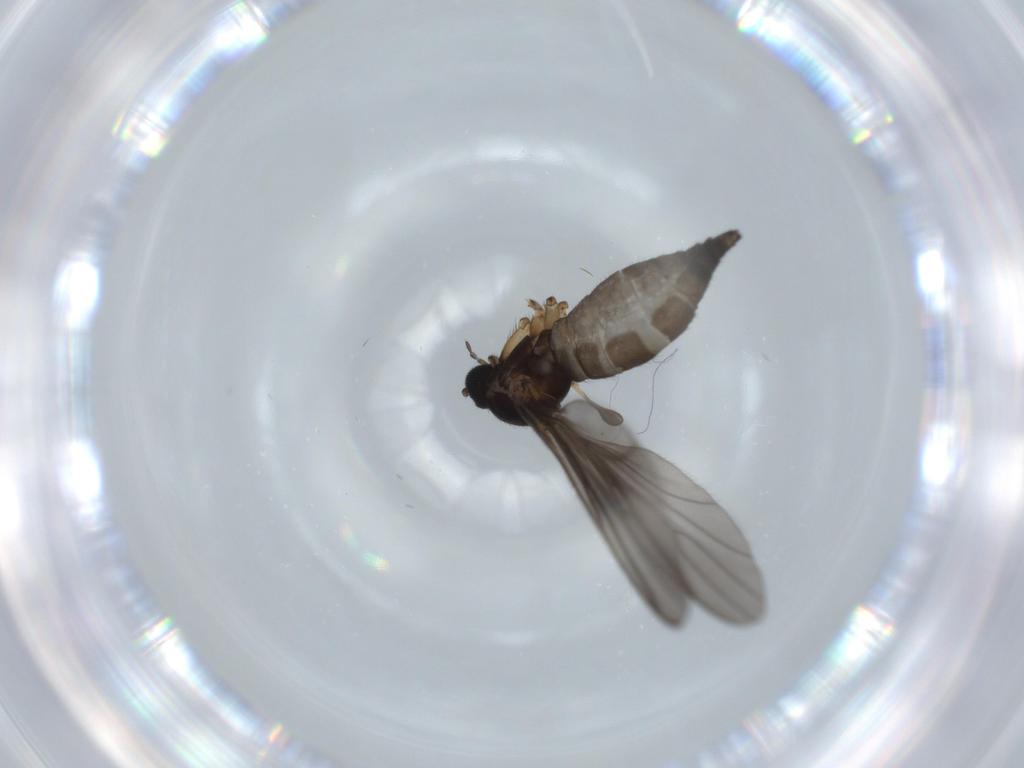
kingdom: Animalia
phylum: Arthropoda
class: Insecta
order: Diptera
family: Sciaridae
